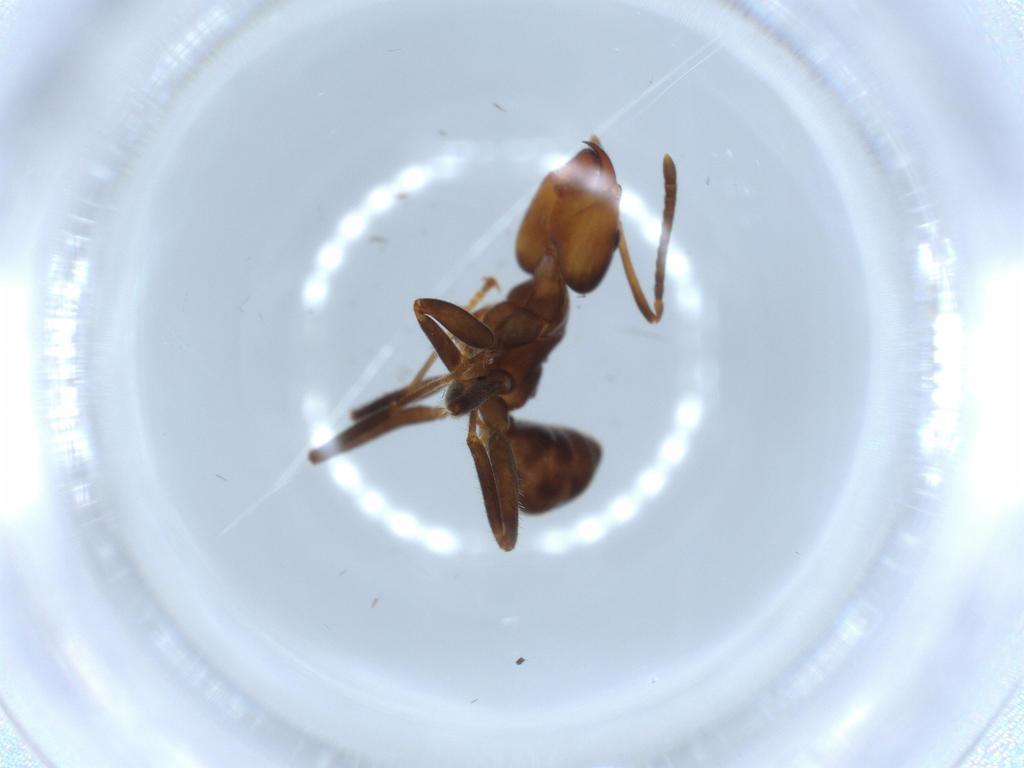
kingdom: Animalia
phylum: Arthropoda
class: Insecta
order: Hymenoptera
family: Formicidae
